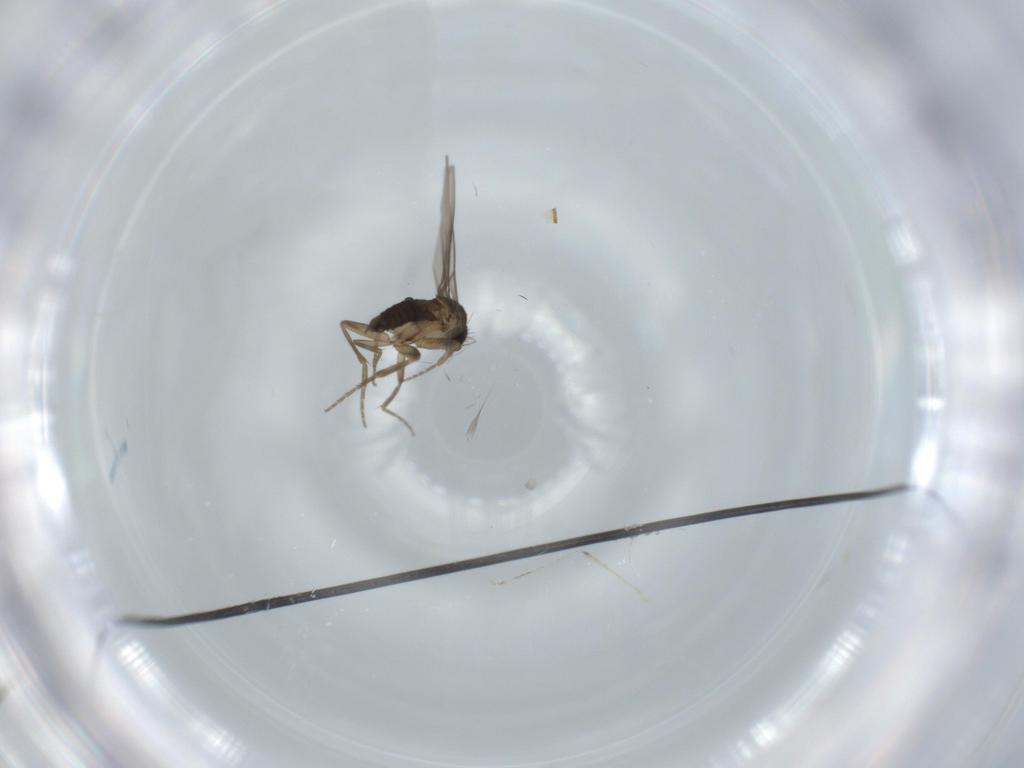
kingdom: Animalia
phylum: Arthropoda
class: Insecta
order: Diptera
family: Phoridae
